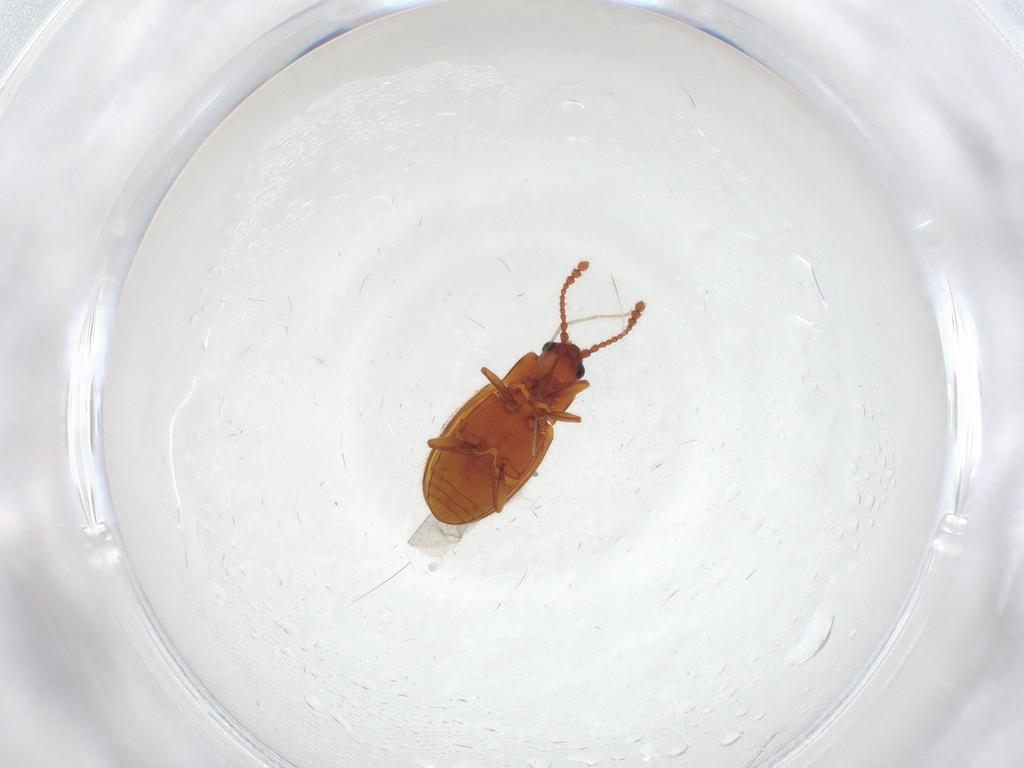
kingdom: Animalia
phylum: Arthropoda
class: Insecta
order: Coleoptera
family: Cryptophagidae
